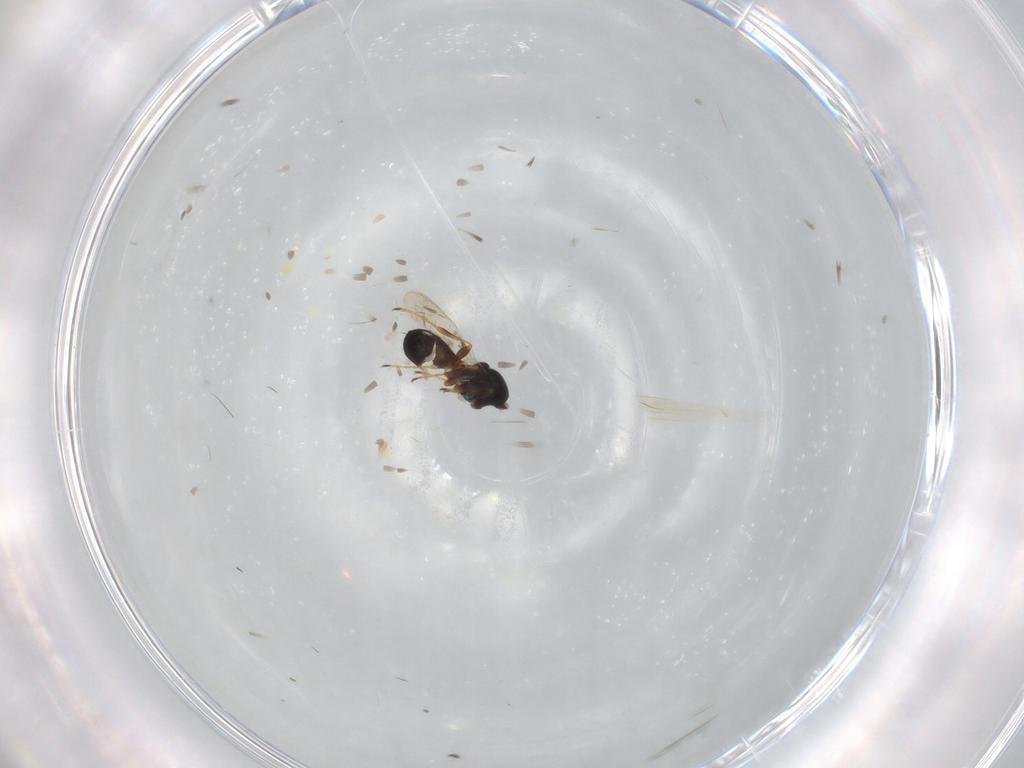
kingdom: Animalia
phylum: Arthropoda
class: Insecta
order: Hymenoptera
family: Platygastridae
